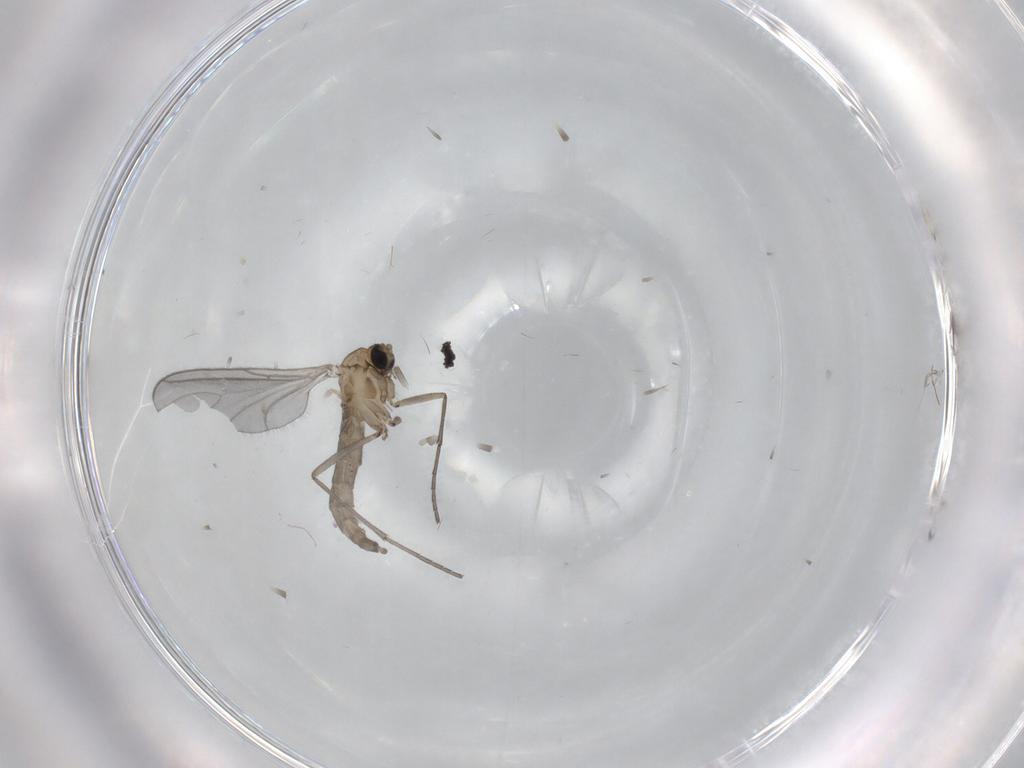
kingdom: Animalia
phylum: Arthropoda
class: Insecta
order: Diptera
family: Sciaridae
